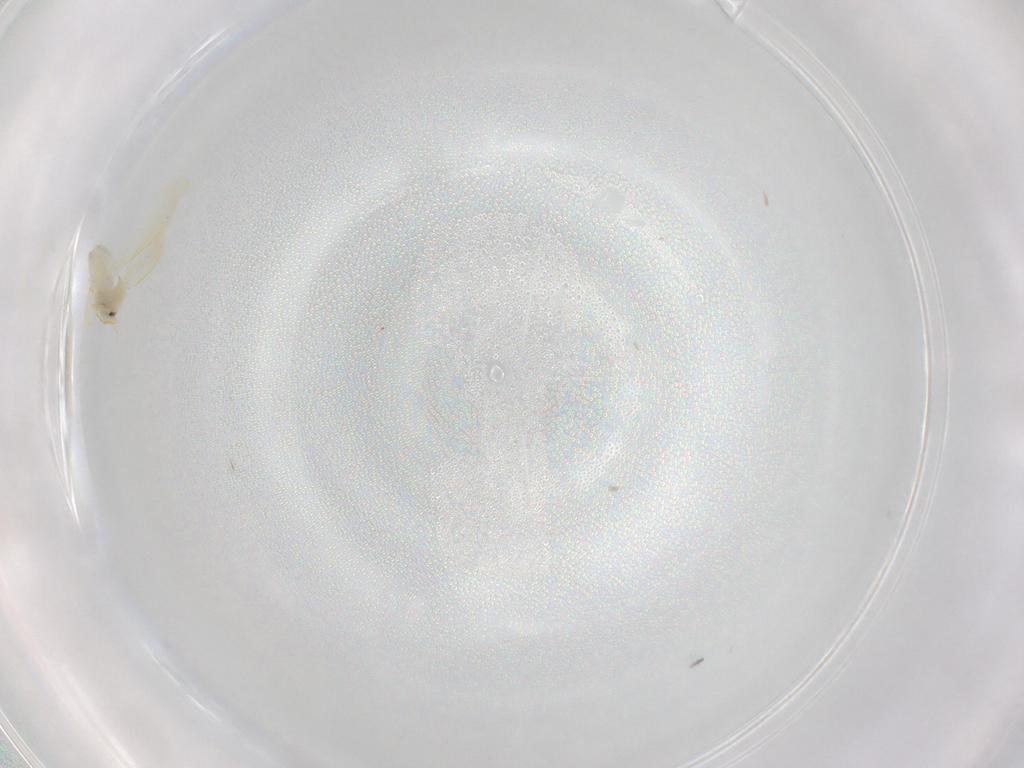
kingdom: Animalia
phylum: Arthropoda
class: Insecta
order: Hemiptera
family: Aleyrodidae
